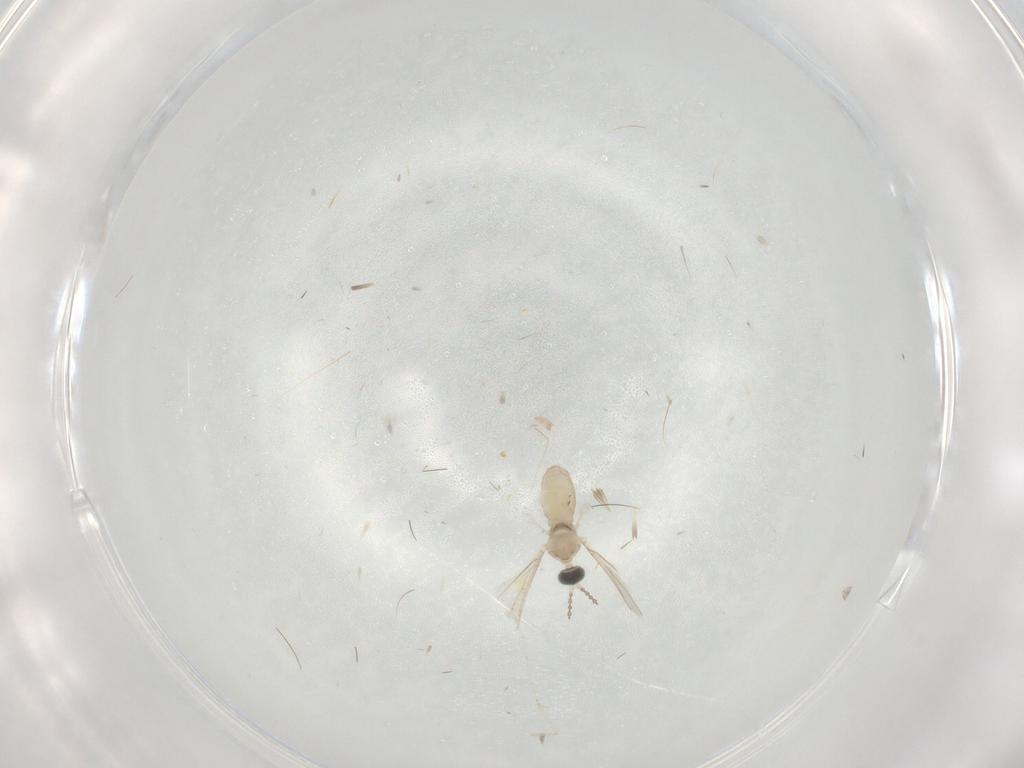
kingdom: Animalia
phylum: Arthropoda
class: Insecta
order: Diptera
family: Cecidomyiidae
